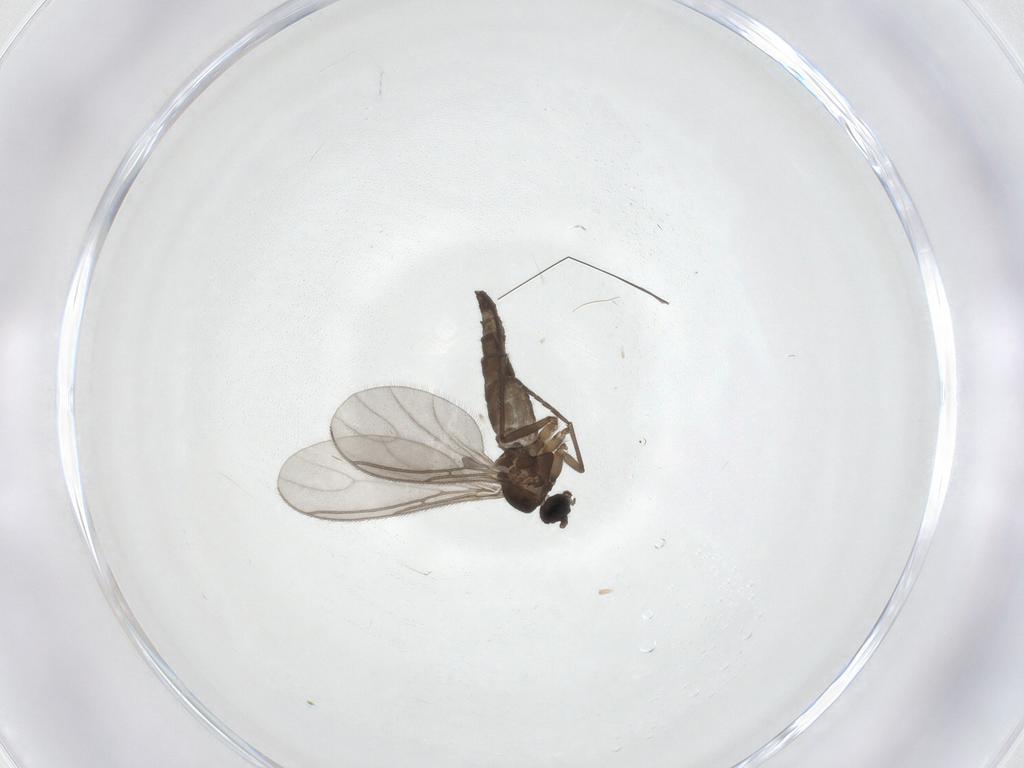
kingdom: Animalia
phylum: Arthropoda
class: Insecta
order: Diptera
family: Sciaridae
